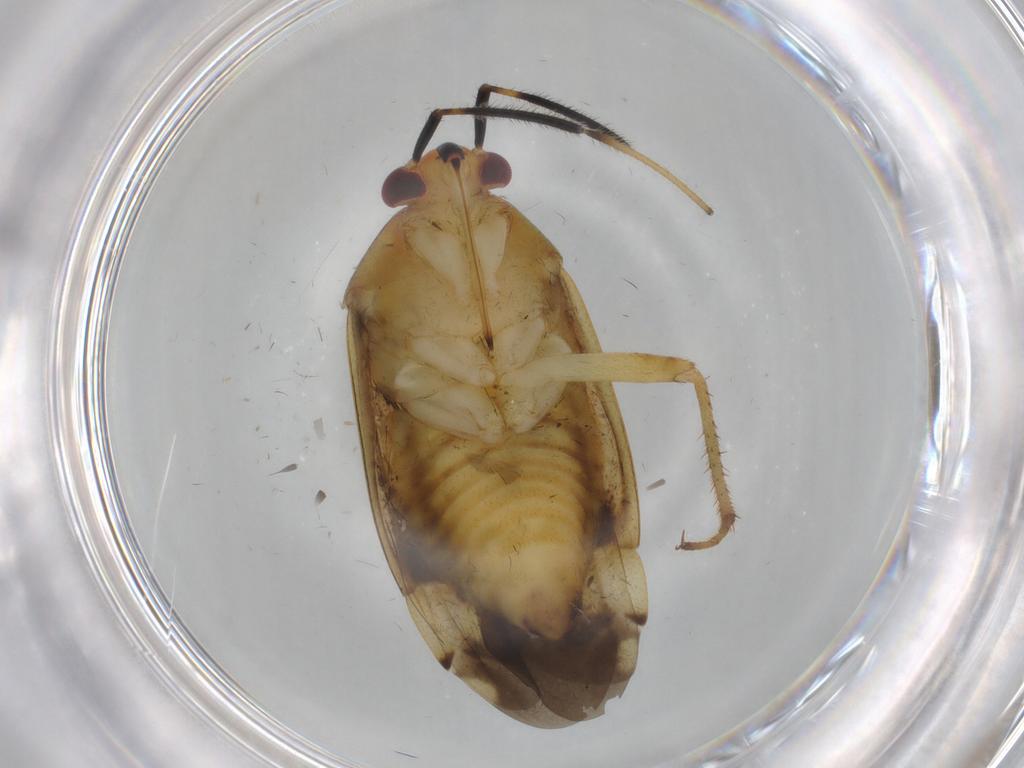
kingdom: Animalia
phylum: Arthropoda
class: Insecta
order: Hemiptera
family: Miridae
